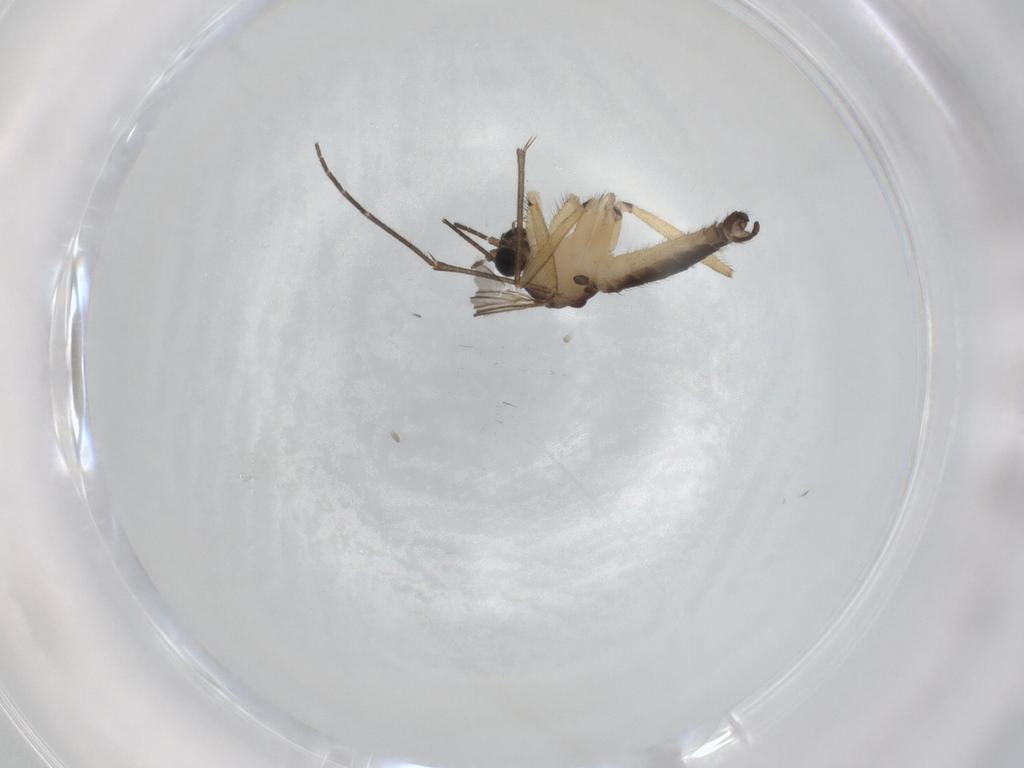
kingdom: Animalia
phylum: Arthropoda
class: Insecta
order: Diptera
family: Sciaridae
